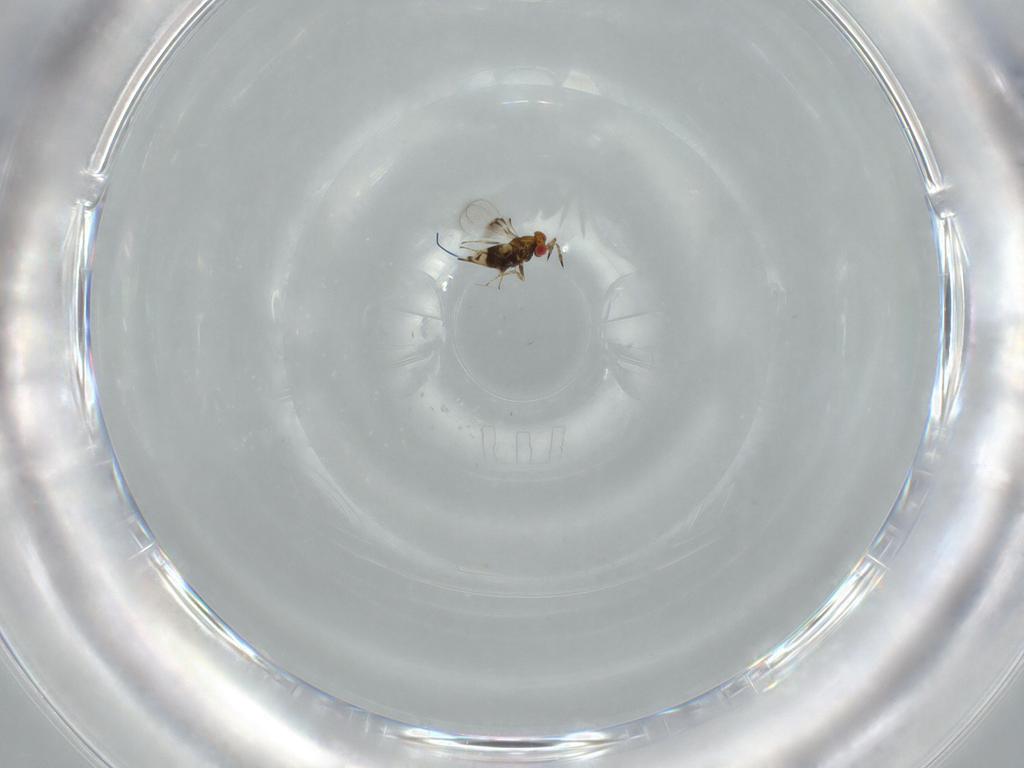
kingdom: Animalia
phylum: Arthropoda
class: Insecta
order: Hymenoptera
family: Trichogrammatidae
